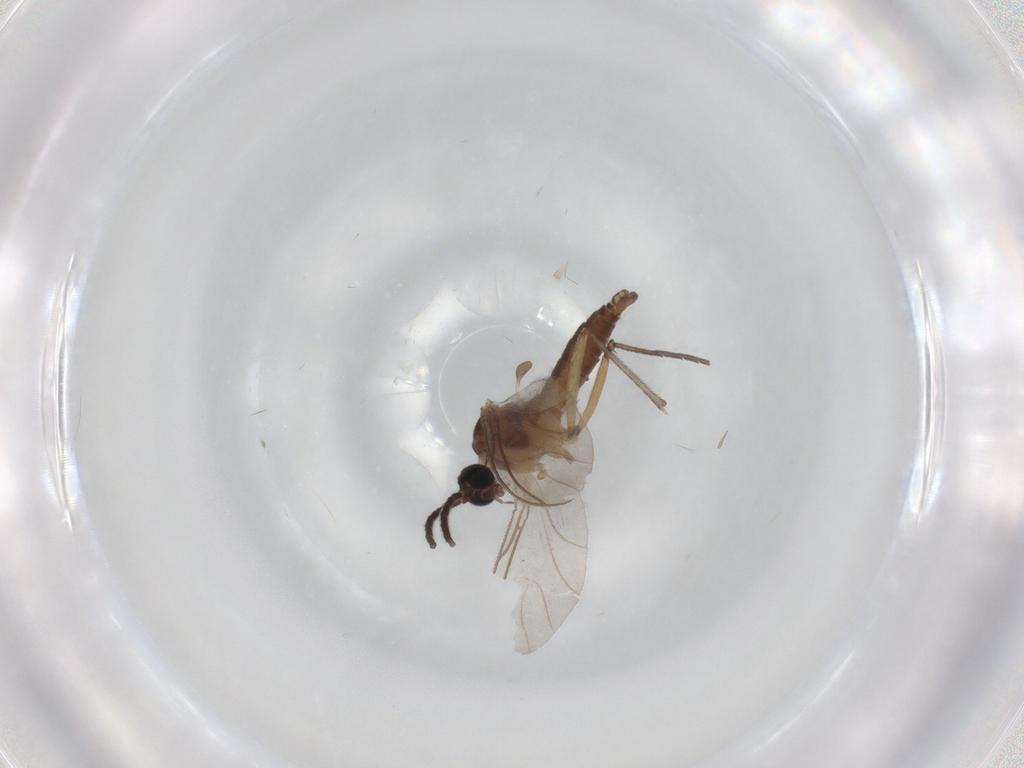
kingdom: Animalia
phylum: Arthropoda
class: Insecta
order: Diptera
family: Sciaridae
